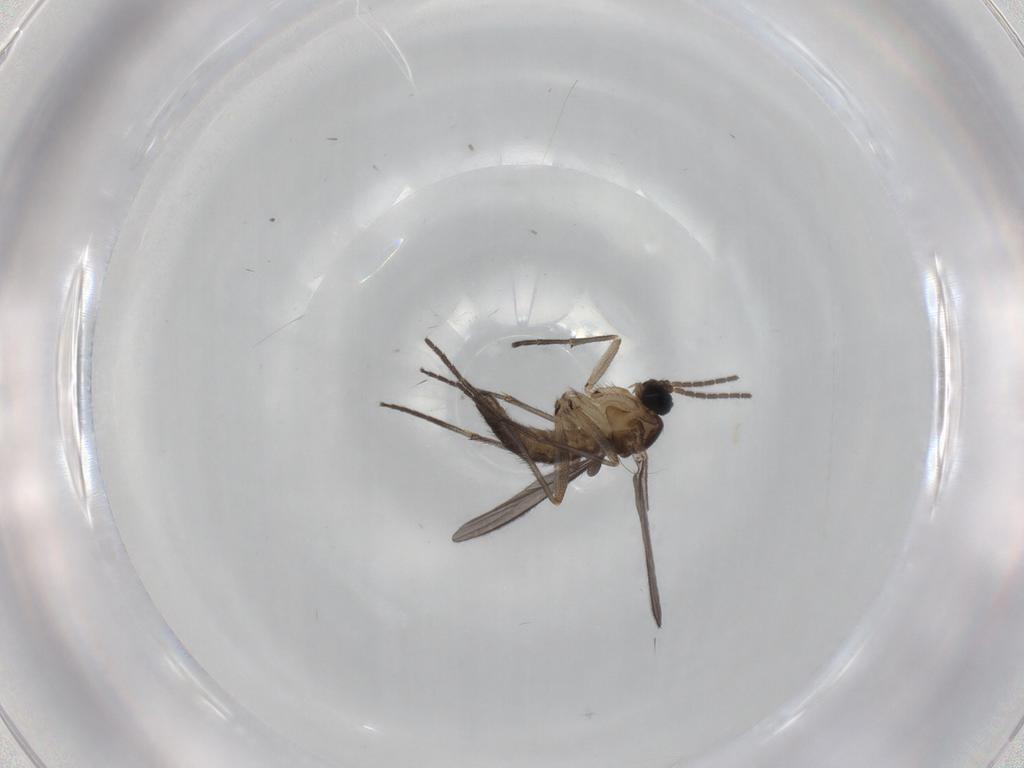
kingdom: Animalia
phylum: Arthropoda
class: Insecta
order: Diptera
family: Sciaridae
